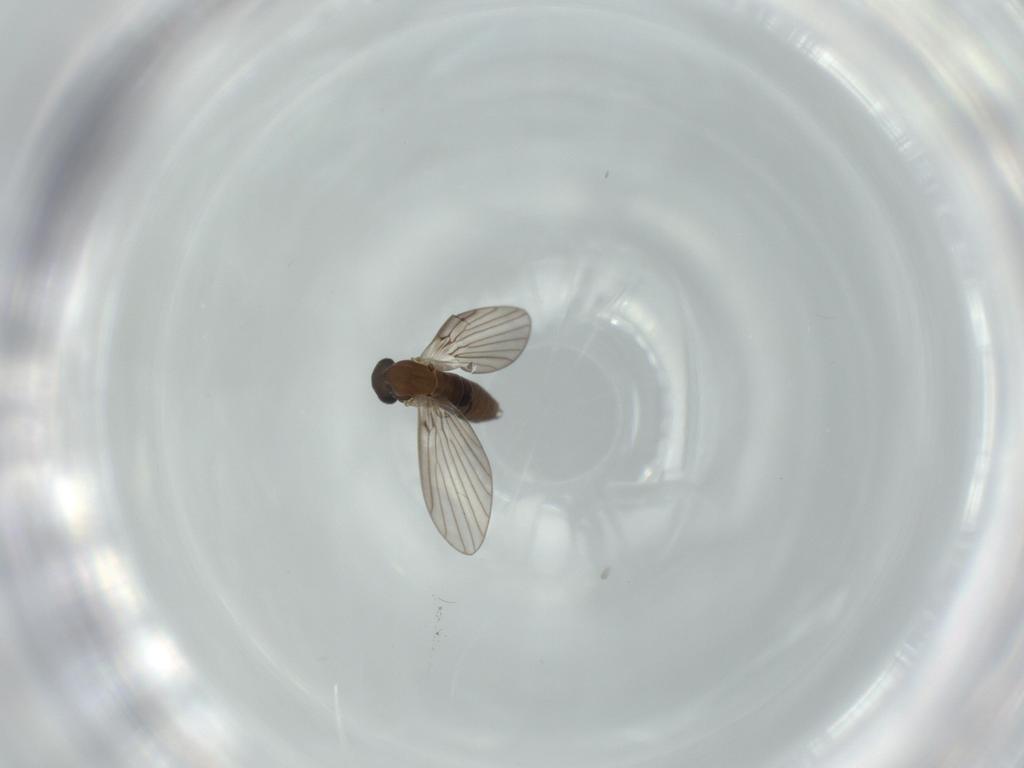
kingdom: Animalia
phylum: Arthropoda
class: Insecta
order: Diptera
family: Psychodidae
